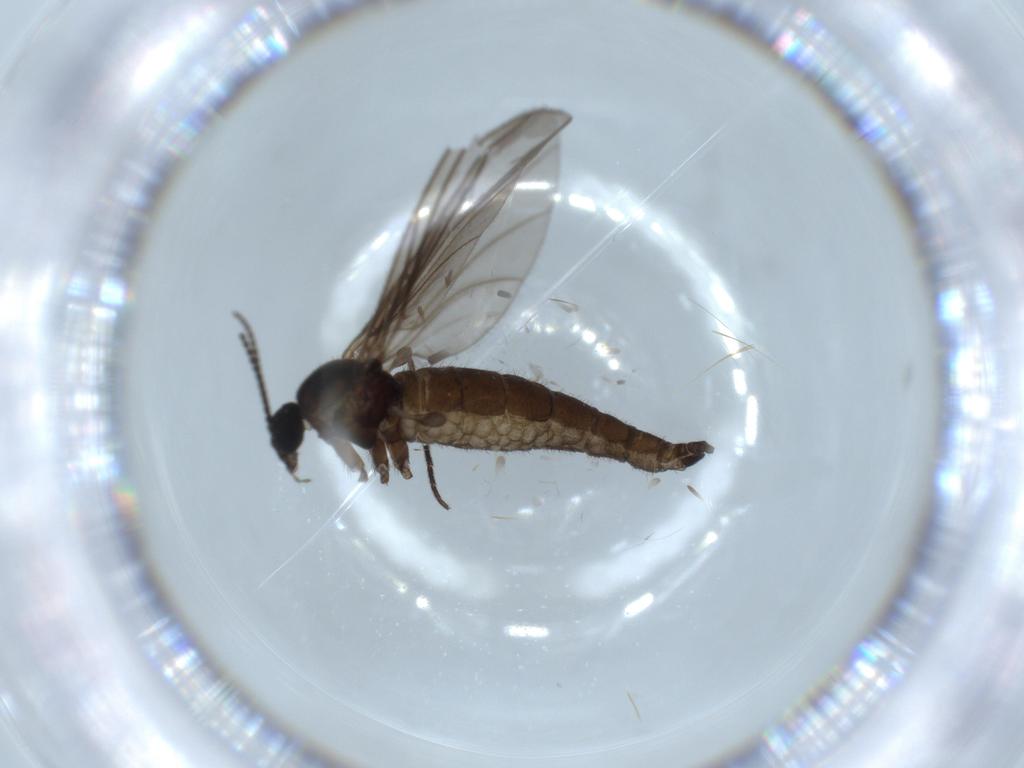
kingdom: Animalia
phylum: Arthropoda
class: Insecta
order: Diptera
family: Sciaridae
